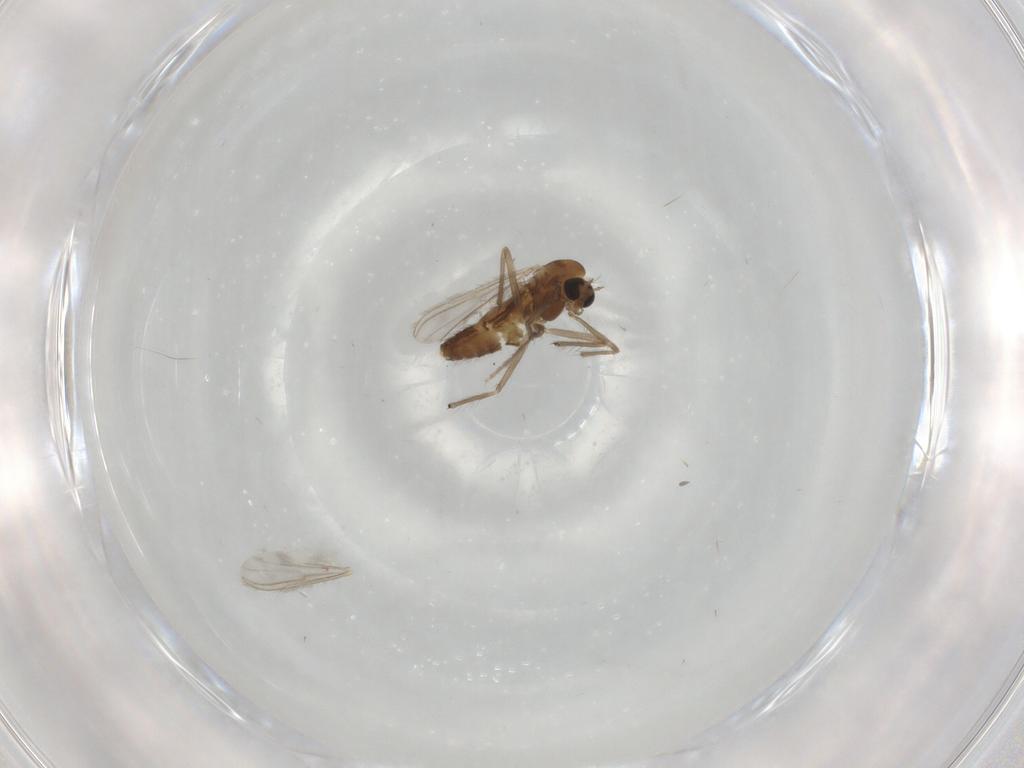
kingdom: Animalia
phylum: Arthropoda
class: Insecta
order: Diptera
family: Chironomidae
